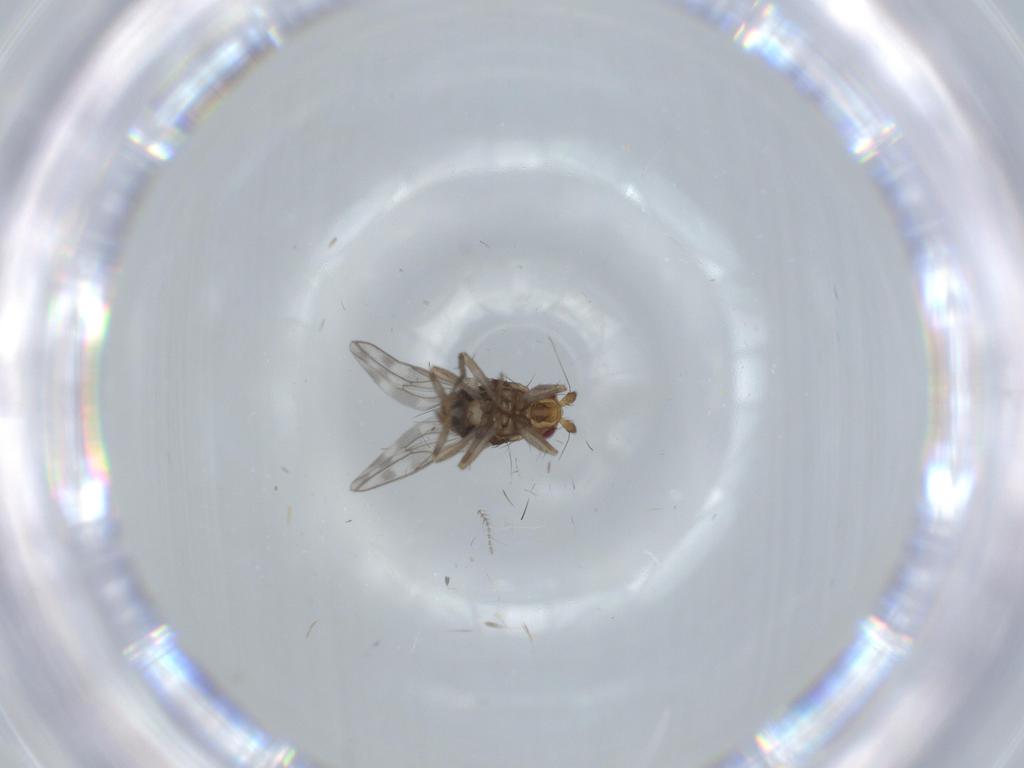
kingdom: Animalia
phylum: Arthropoda
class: Insecta
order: Diptera
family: Sphaeroceridae
